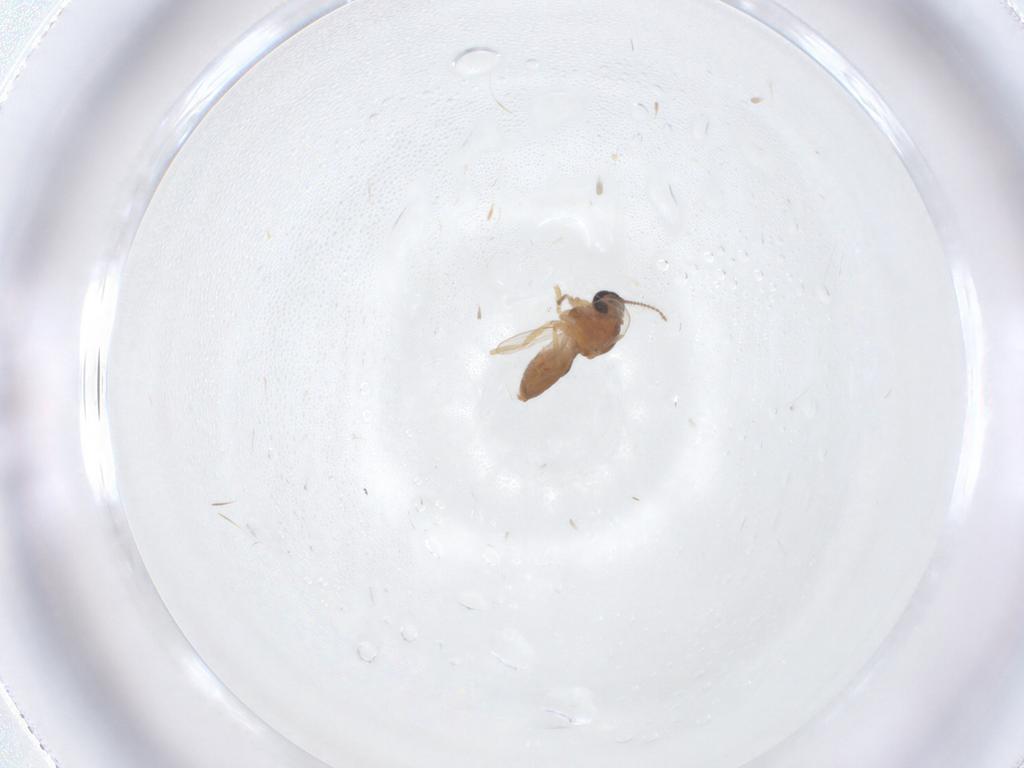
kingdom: Animalia
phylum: Arthropoda
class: Insecta
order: Diptera
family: Ceratopogonidae
